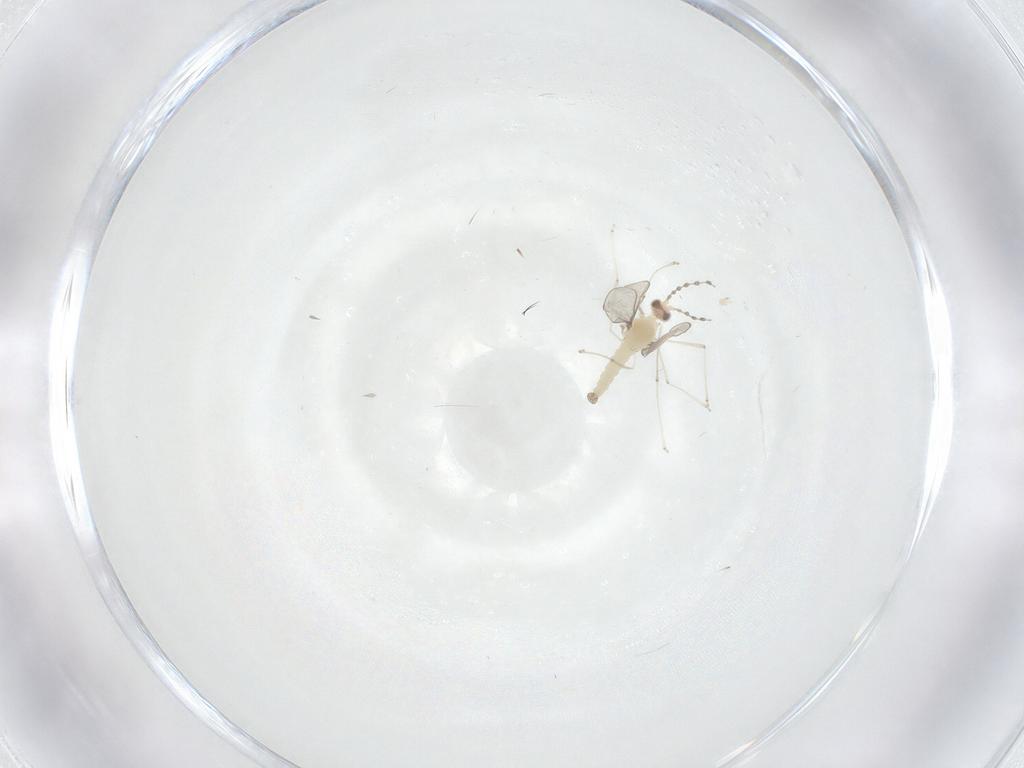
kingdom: Animalia
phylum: Arthropoda
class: Insecta
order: Diptera
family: Cecidomyiidae
